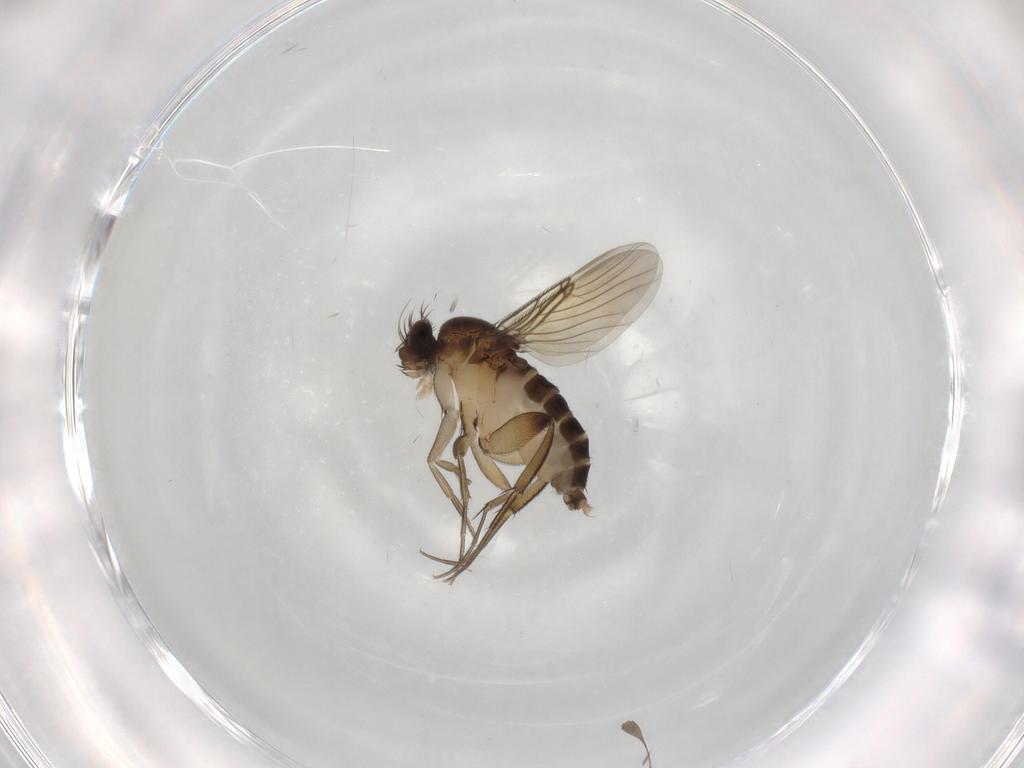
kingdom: Animalia
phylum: Arthropoda
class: Insecta
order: Diptera
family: Phoridae
